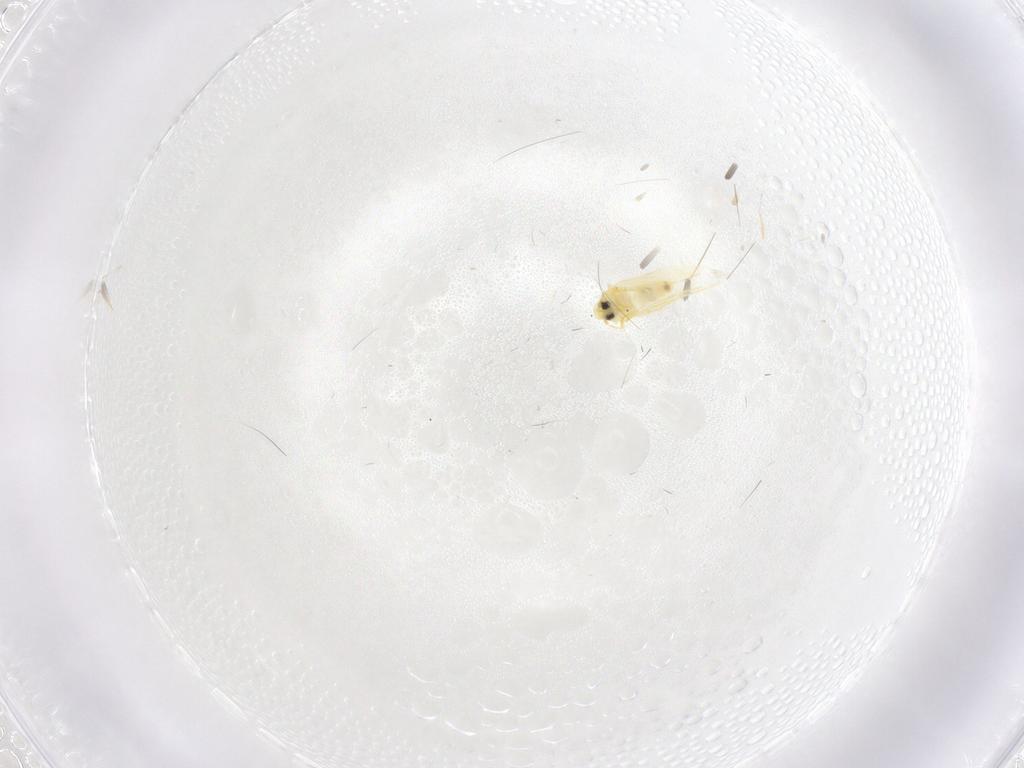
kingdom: Animalia
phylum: Arthropoda
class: Insecta
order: Hemiptera
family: Aleyrodidae
